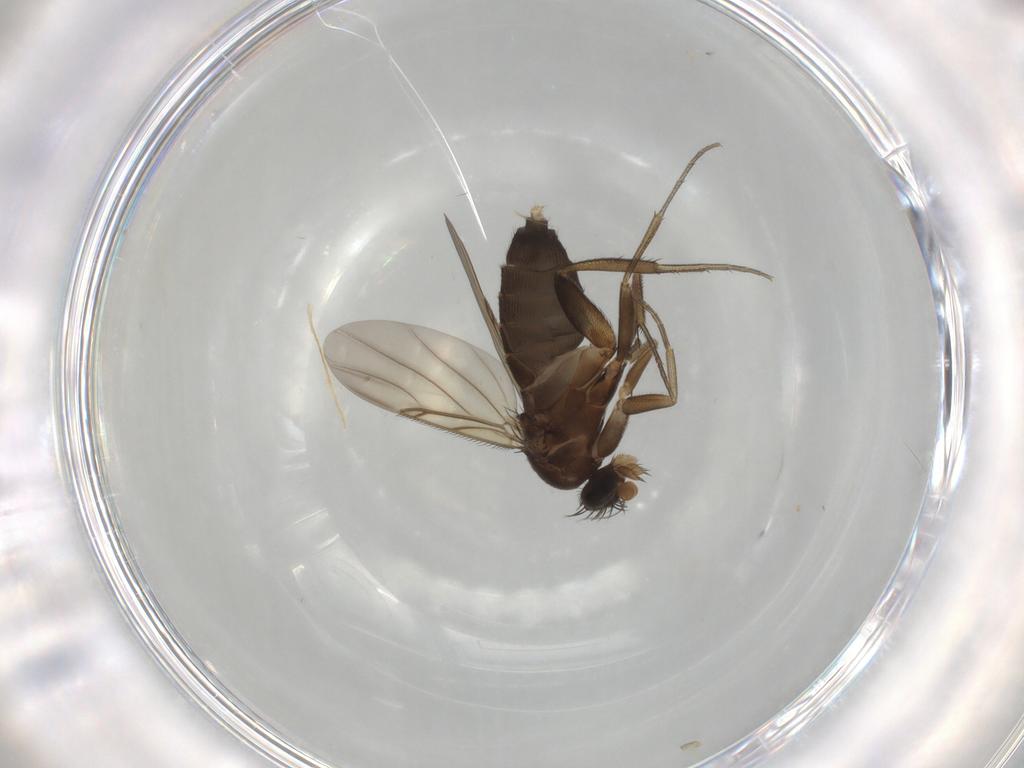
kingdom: Animalia
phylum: Arthropoda
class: Insecta
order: Diptera
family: Phoridae
